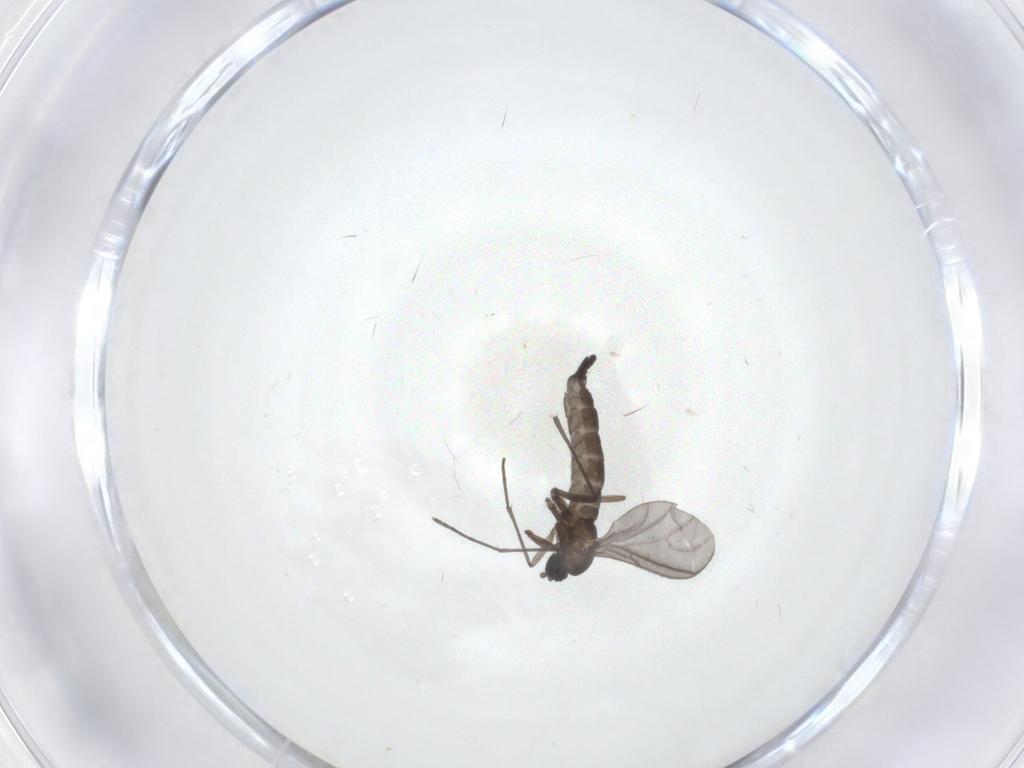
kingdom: Animalia
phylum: Arthropoda
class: Insecta
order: Diptera
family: Sciaridae
